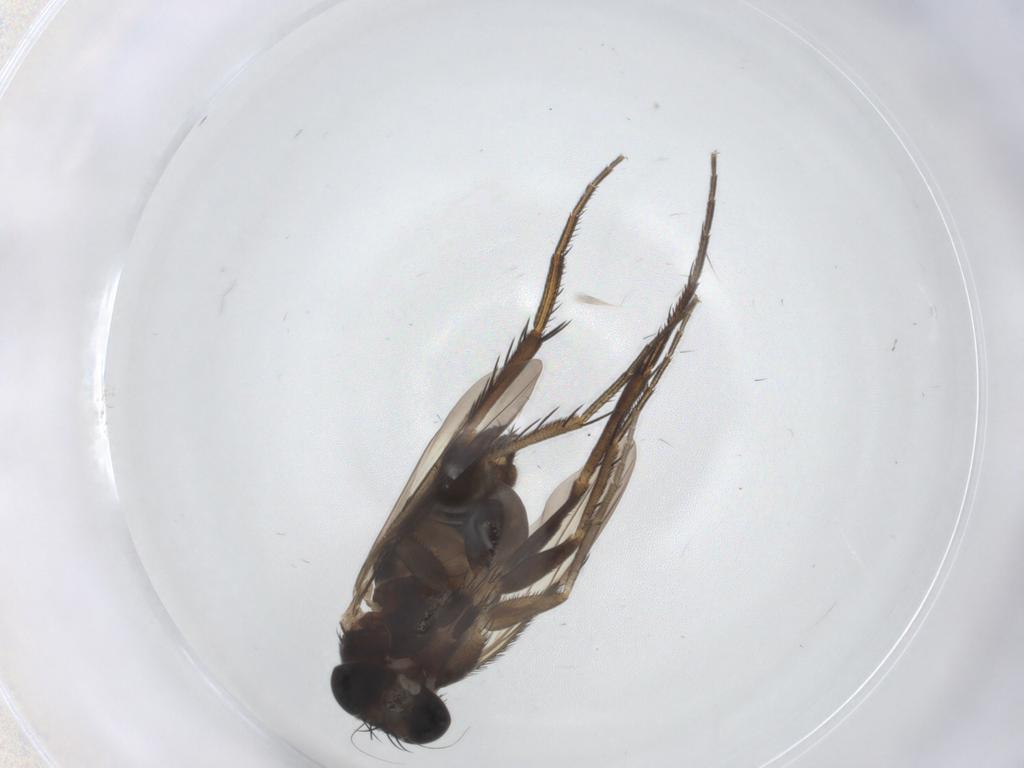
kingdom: Animalia
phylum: Arthropoda
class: Insecta
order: Diptera
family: Phoridae
